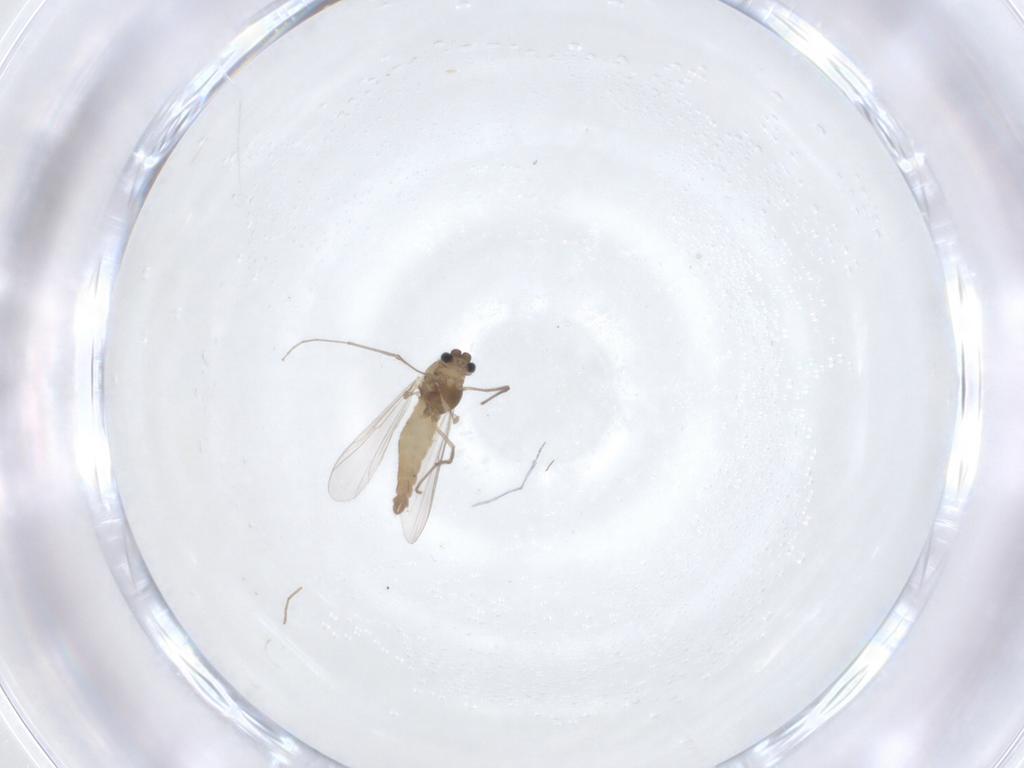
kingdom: Animalia
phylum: Arthropoda
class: Insecta
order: Diptera
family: Chironomidae
